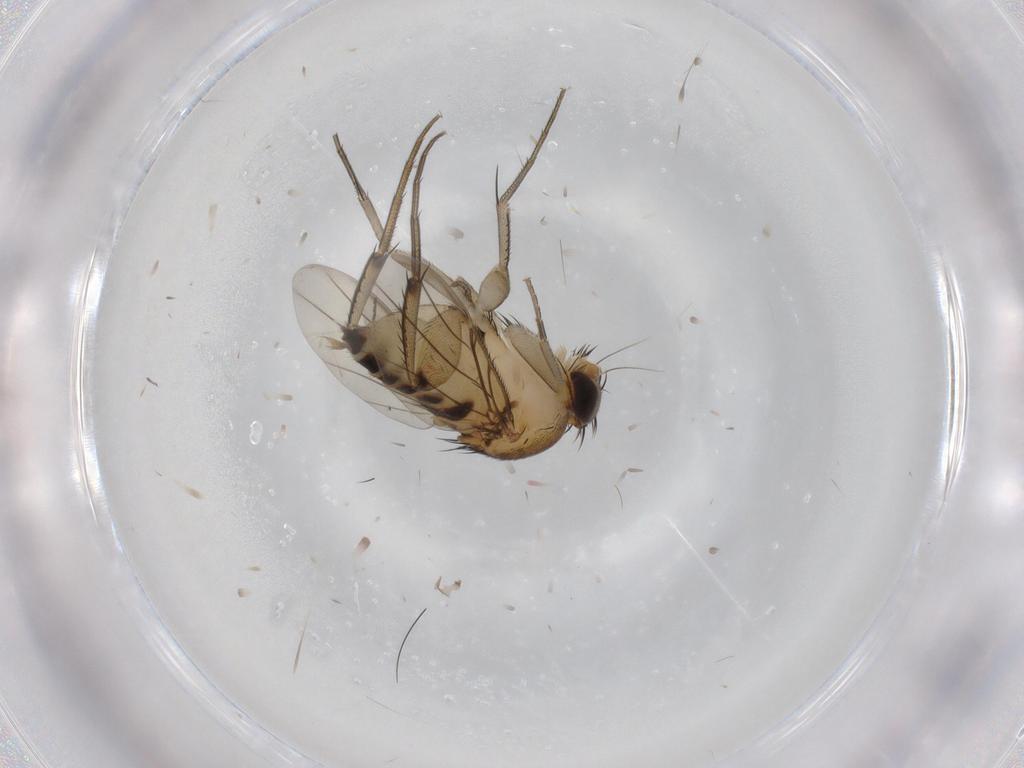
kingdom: Animalia
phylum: Arthropoda
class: Insecta
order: Diptera
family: Phoridae
